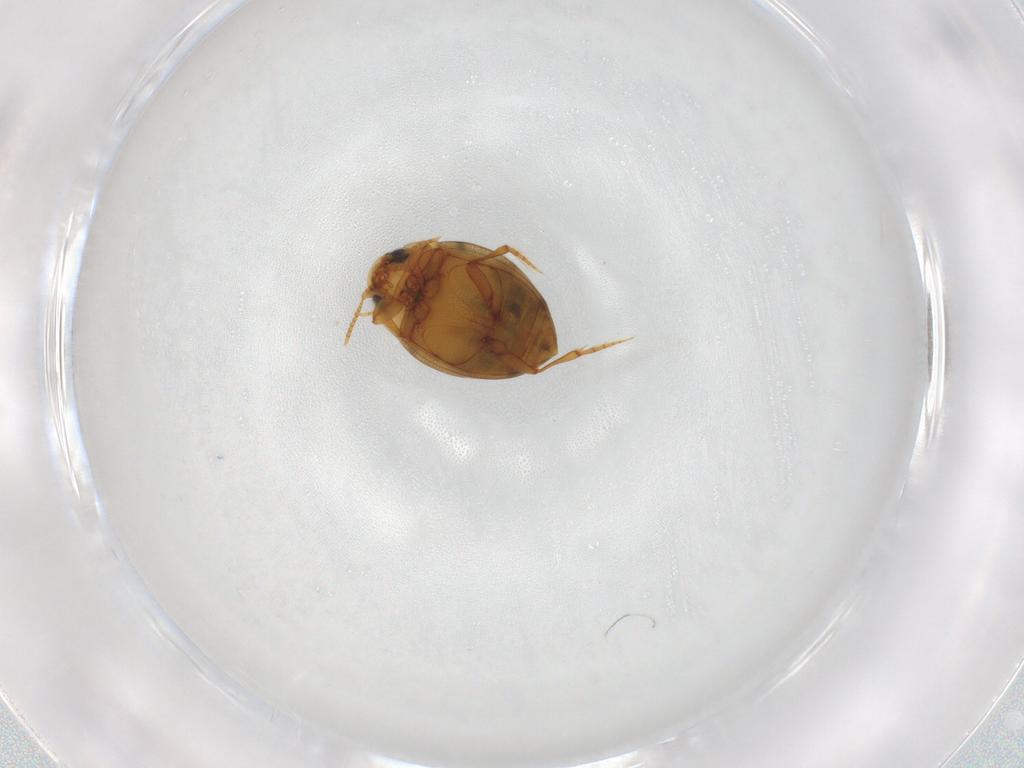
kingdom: Animalia
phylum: Arthropoda
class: Insecta
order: Coleoptera
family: Dytiscidae
